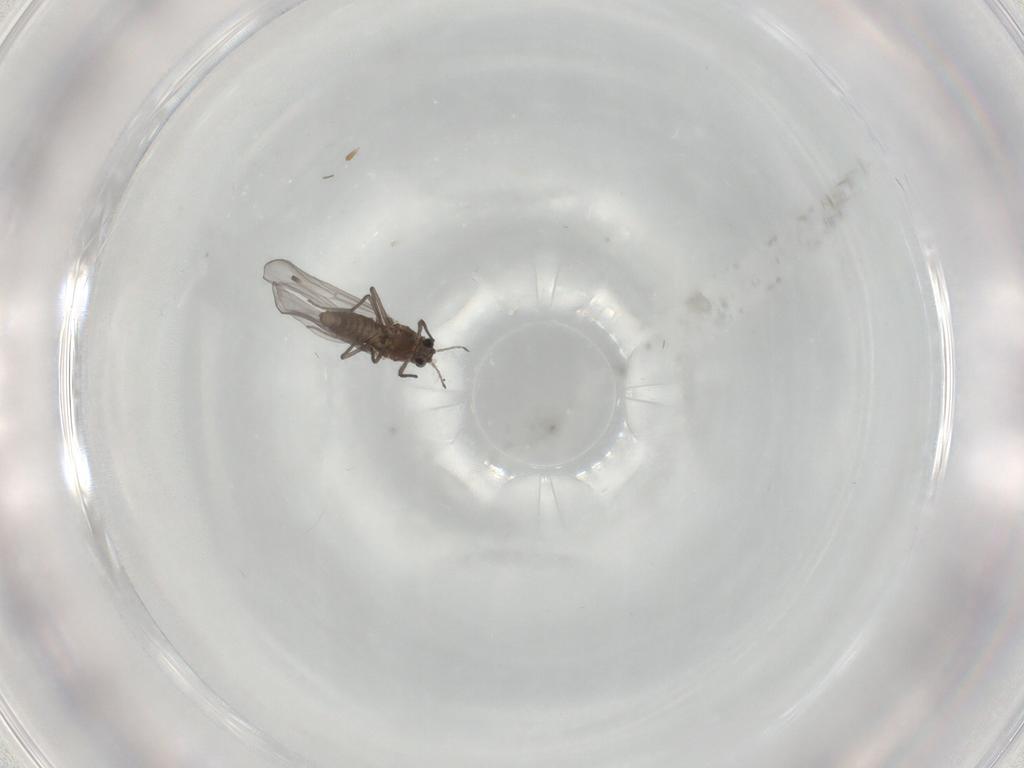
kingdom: Animalia
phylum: Arthropoda
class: Insecta
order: Diptera
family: Chironomidae
